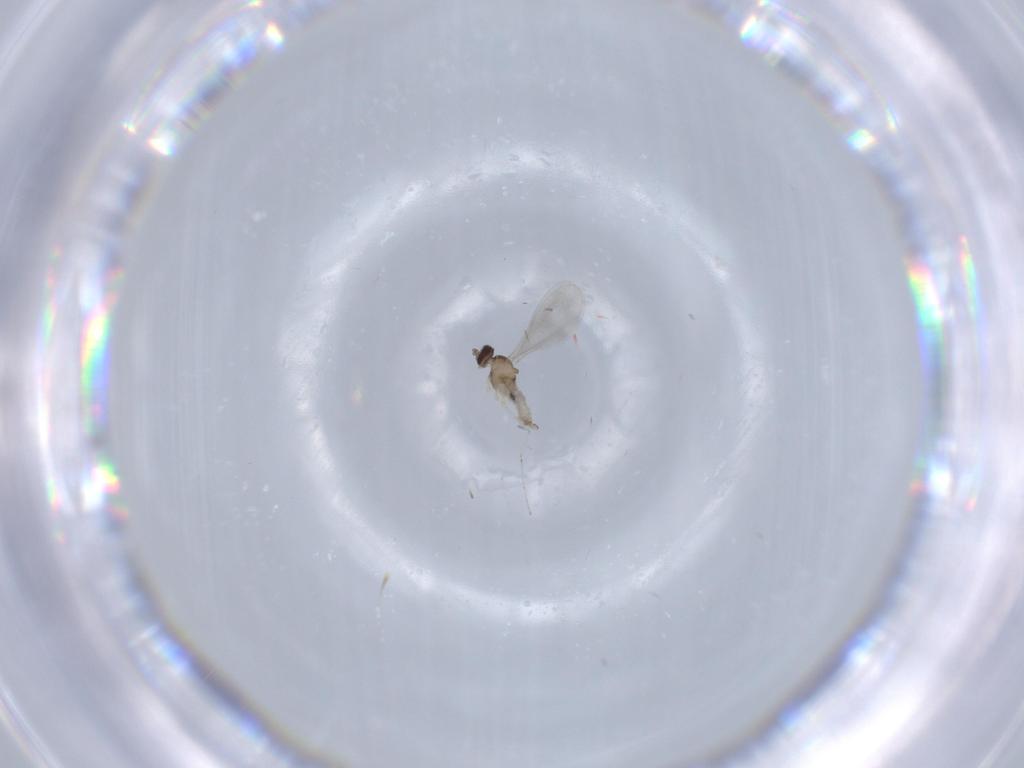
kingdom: Animalia
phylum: Arthropoda
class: Insecta
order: Diptera
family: Cecidomyiidae
